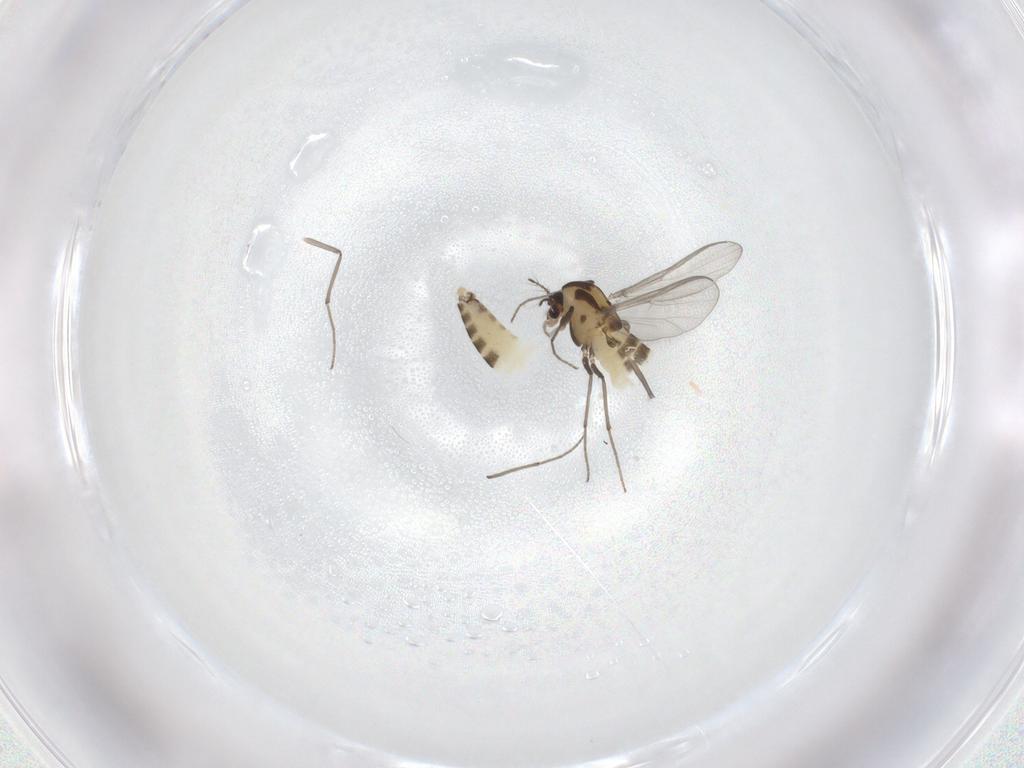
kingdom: Animalia
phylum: Arthropoda
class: Insecta
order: Diptera
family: Chironomidae
